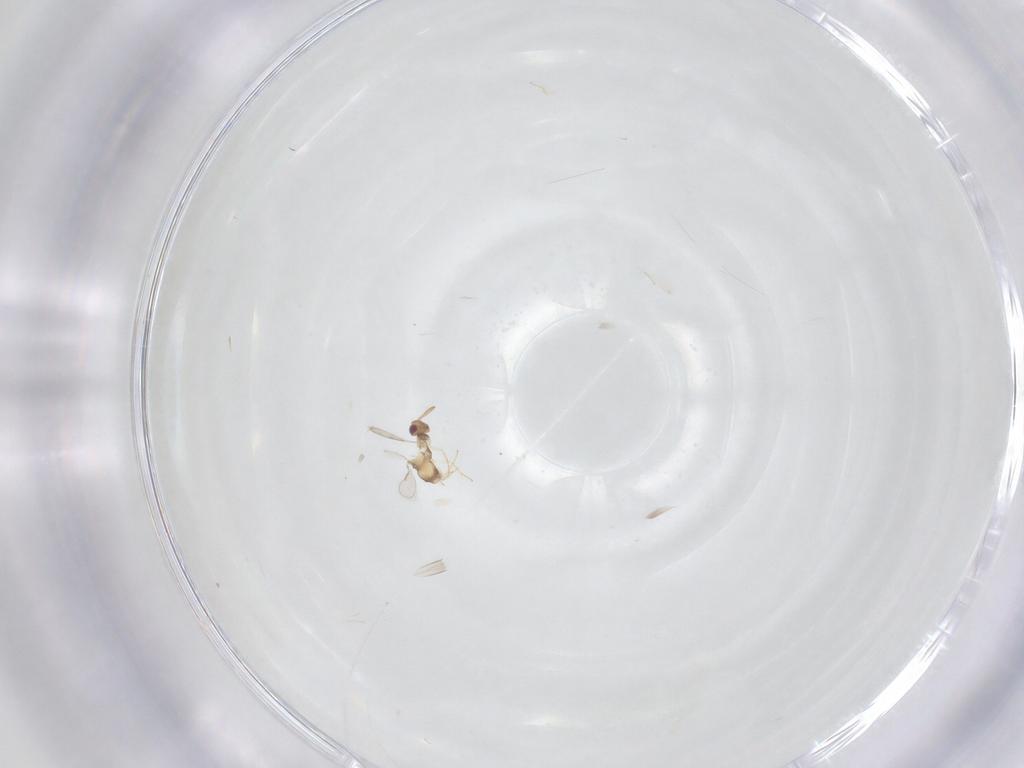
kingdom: Animalia
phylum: Arthropoda
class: Insecta
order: Hymenoptera
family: Aphelinidae
